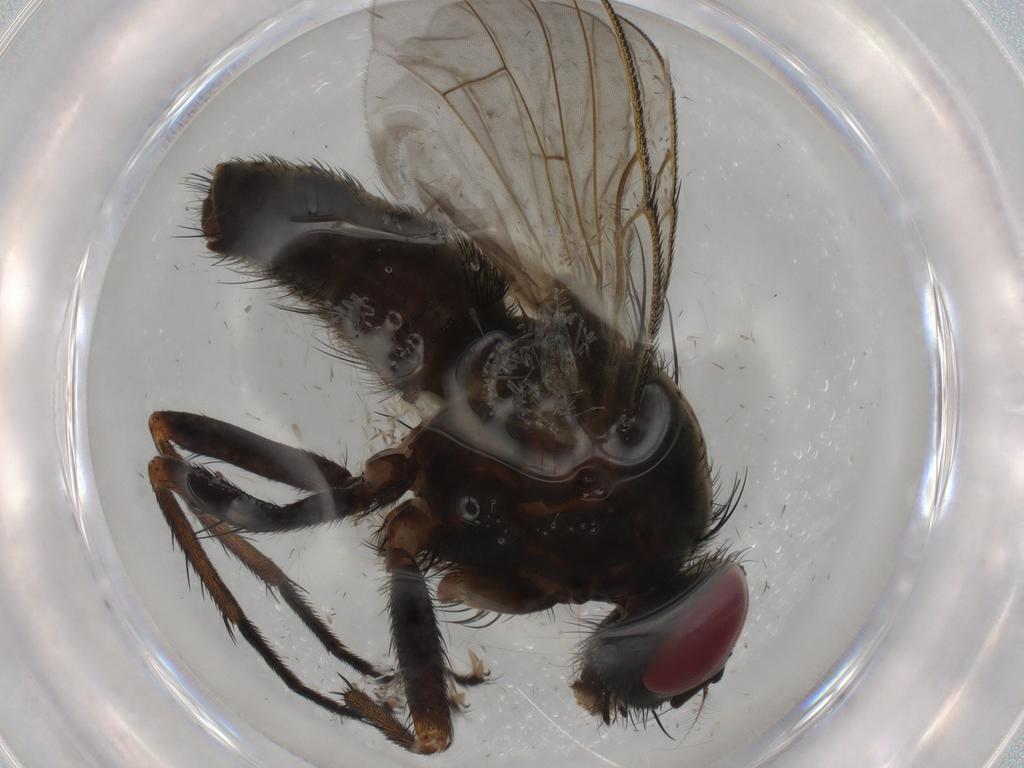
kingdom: Animalia
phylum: Arthropoda
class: Insecta
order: Diptera
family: Muscidae
